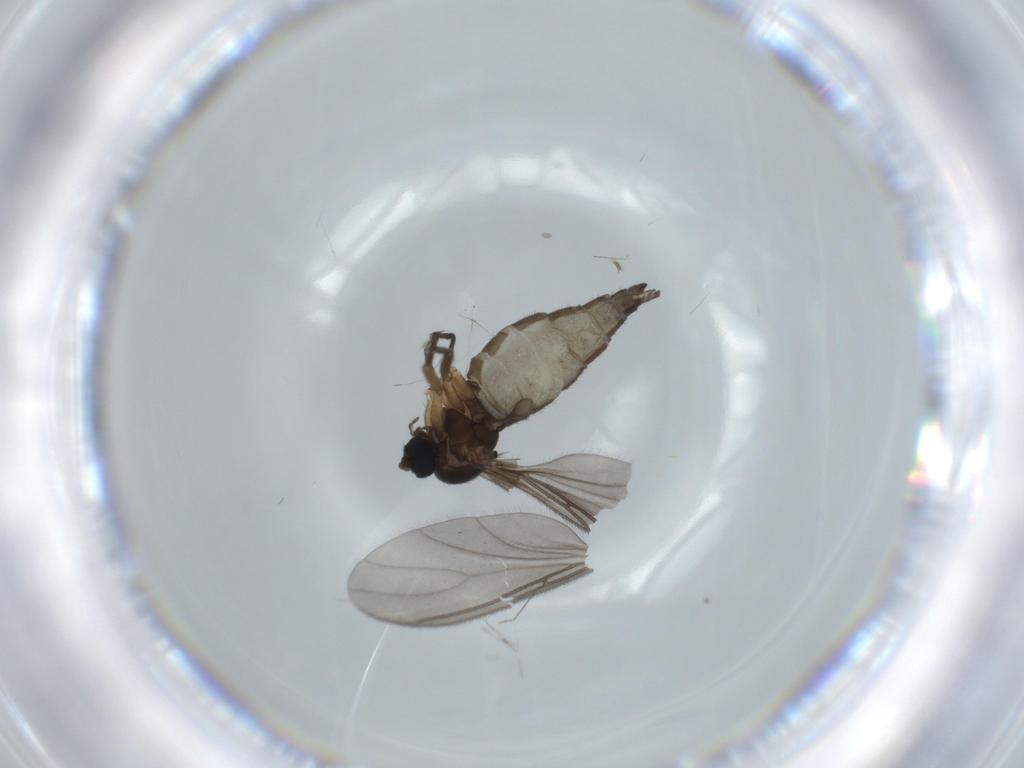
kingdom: Animalia
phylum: Arthropoda
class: Insecta
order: Diptera
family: Sciaridae
